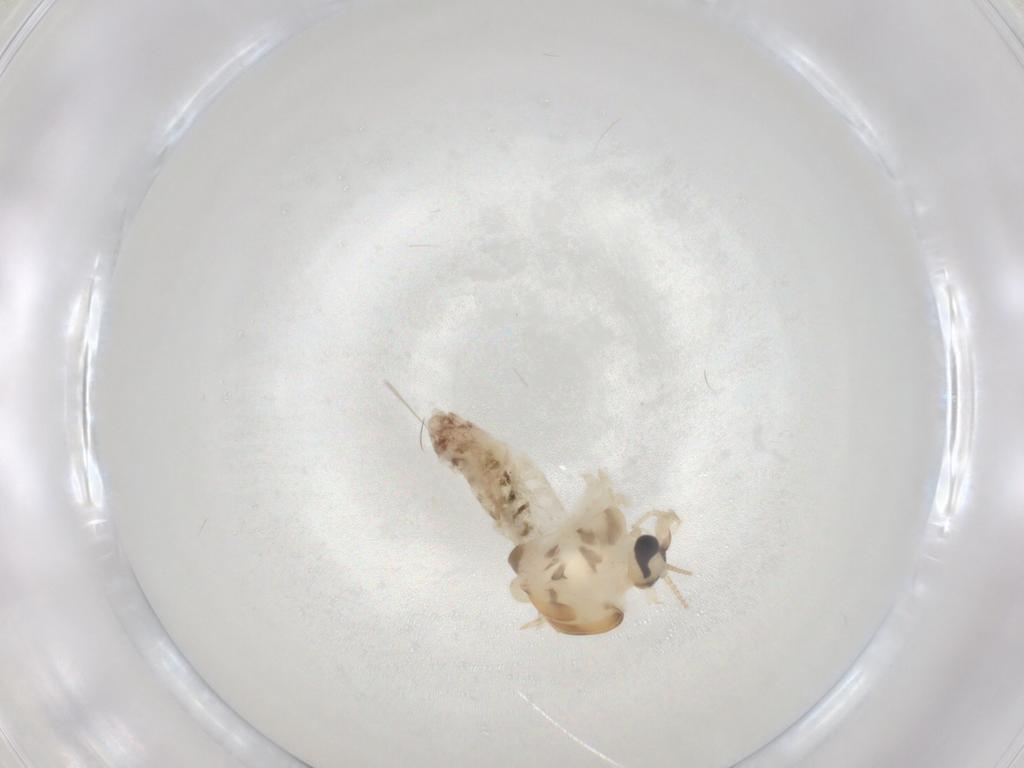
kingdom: Animalia
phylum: Arthropoda
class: Insecta
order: Diptera
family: Chironomidae
